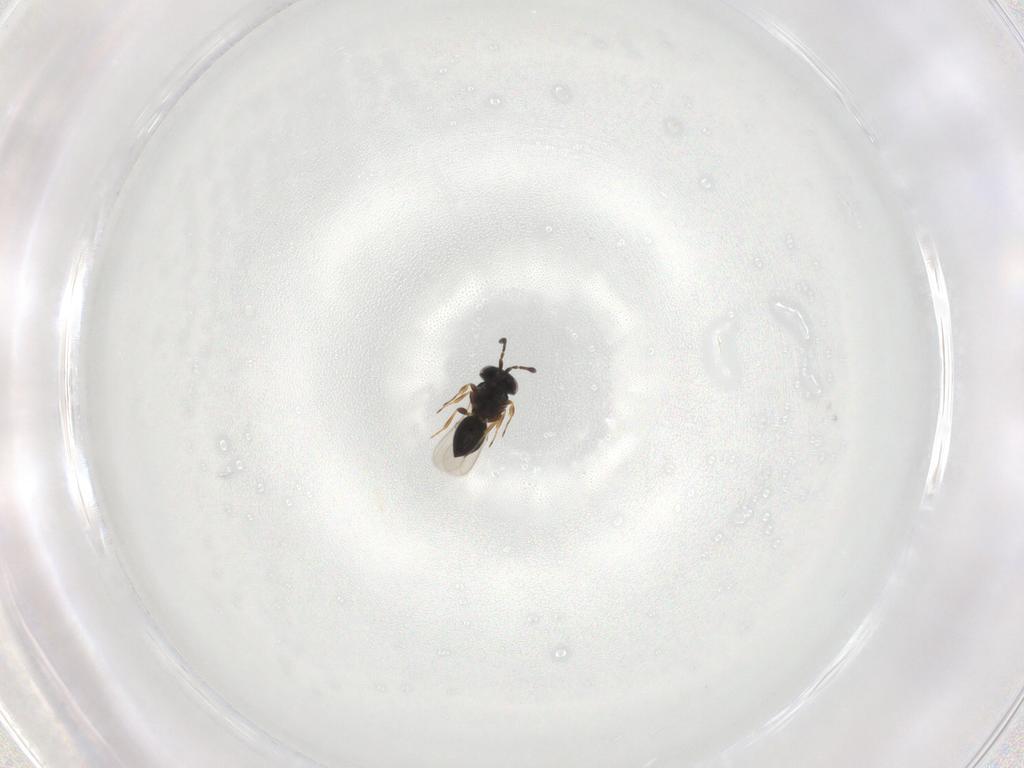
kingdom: Animalia
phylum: Arthropoda
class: Insecta
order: Hymenoptera
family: Scelionidae
